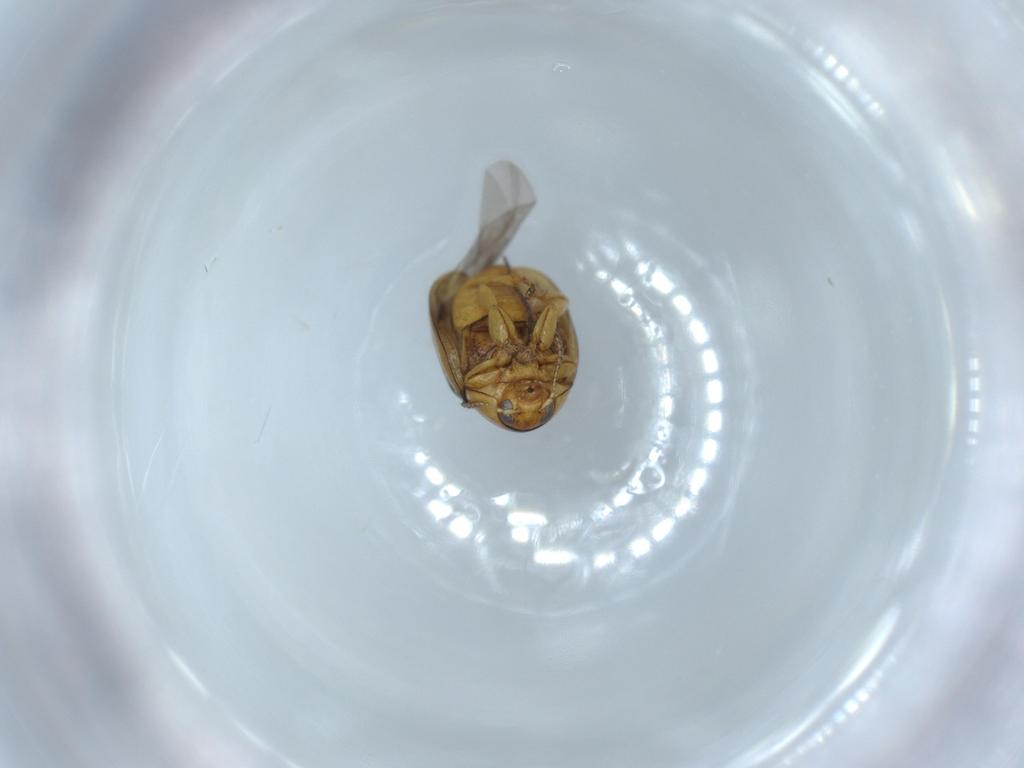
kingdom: Animalia
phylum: Arthropoda
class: Insecta
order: Coleoptera
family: Chrysomelidae
